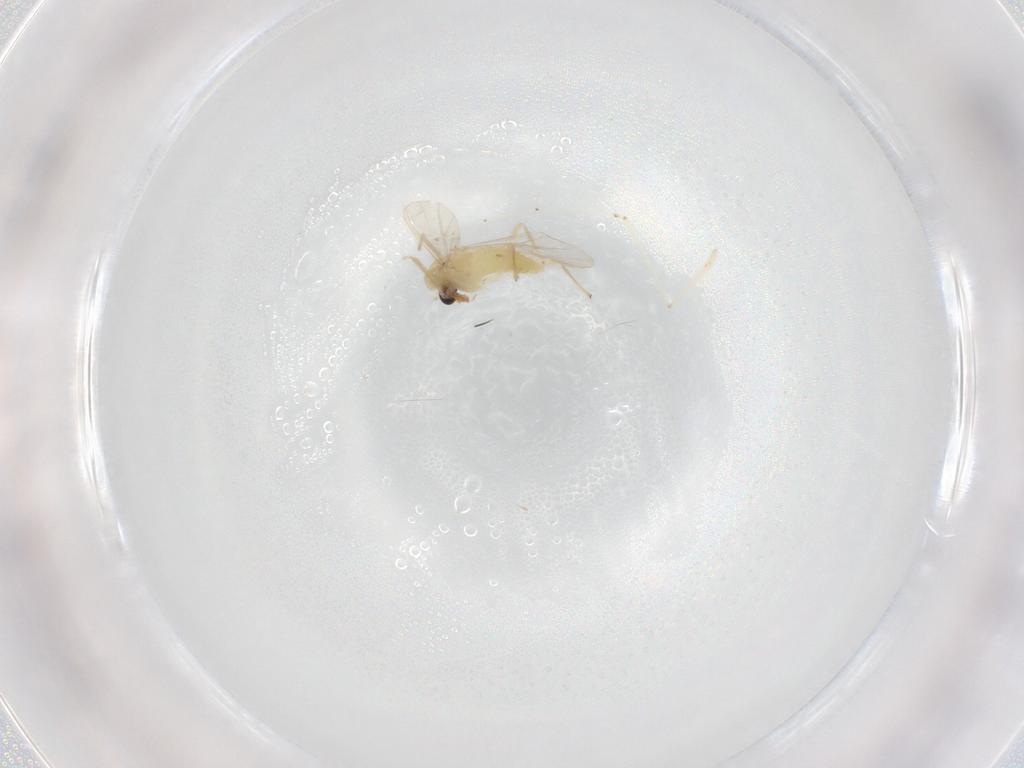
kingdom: Animalia
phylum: Arthropoda
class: Insecta
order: Diptera
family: Chironomidae
